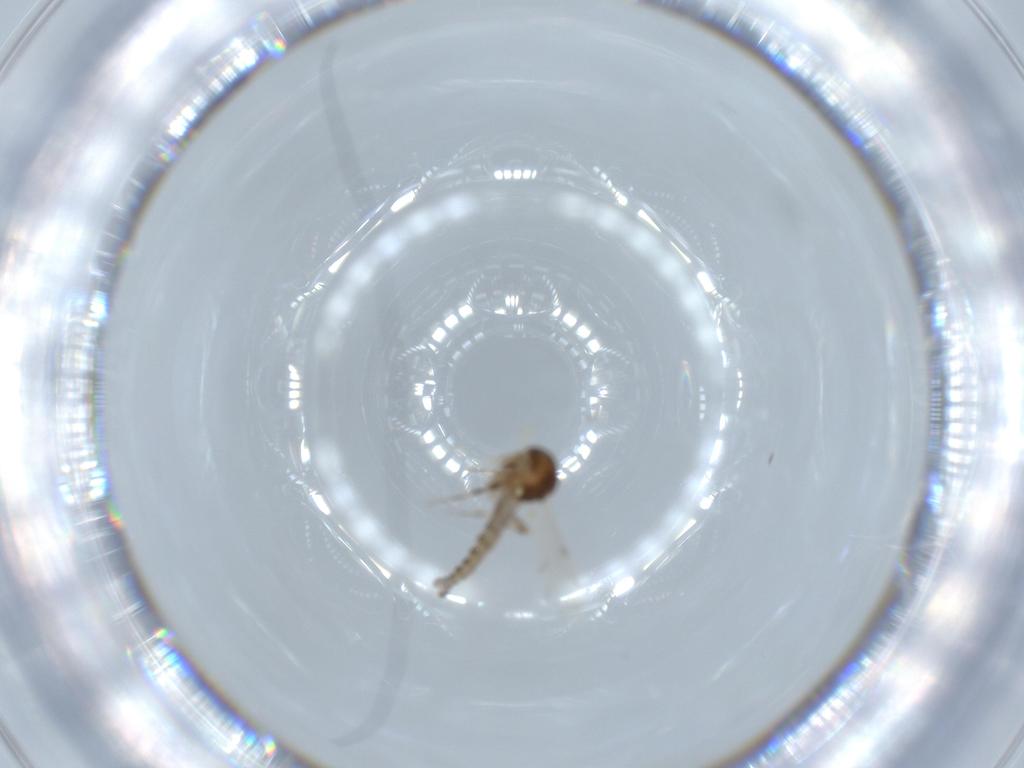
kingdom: Animalia
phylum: Arthropoda
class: Insecta
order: Diptera
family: Ceratopogonidae
